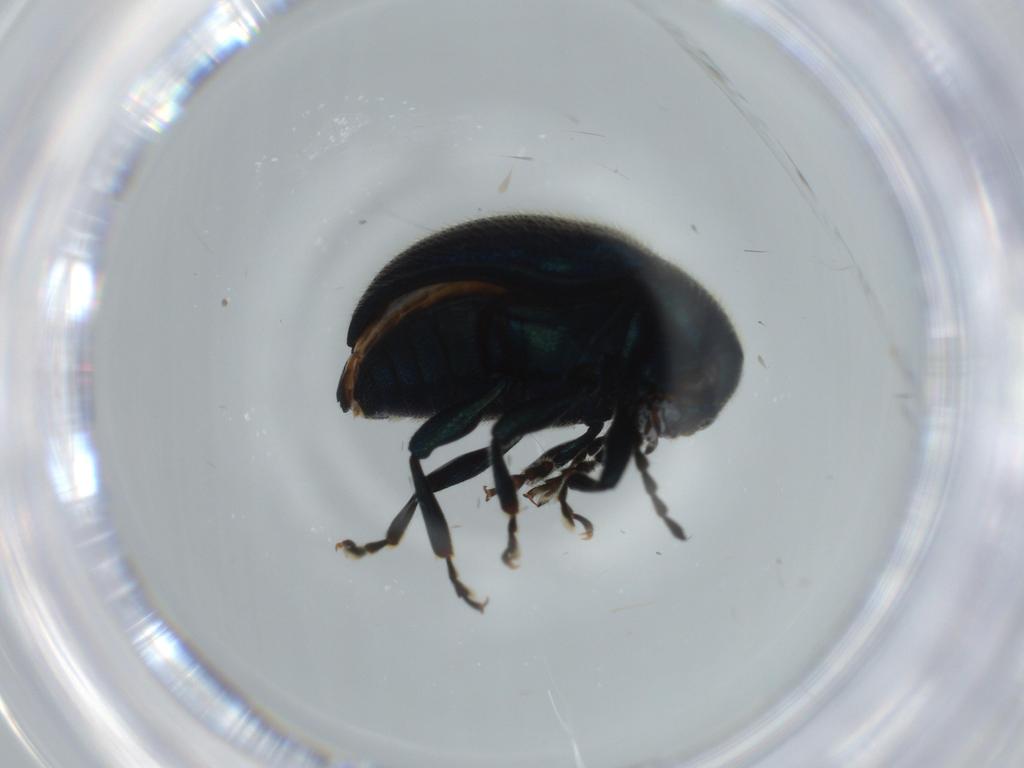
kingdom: Animalia
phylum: Arthropoda
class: Insecta
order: Coleoptera
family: Chrysomelidae
